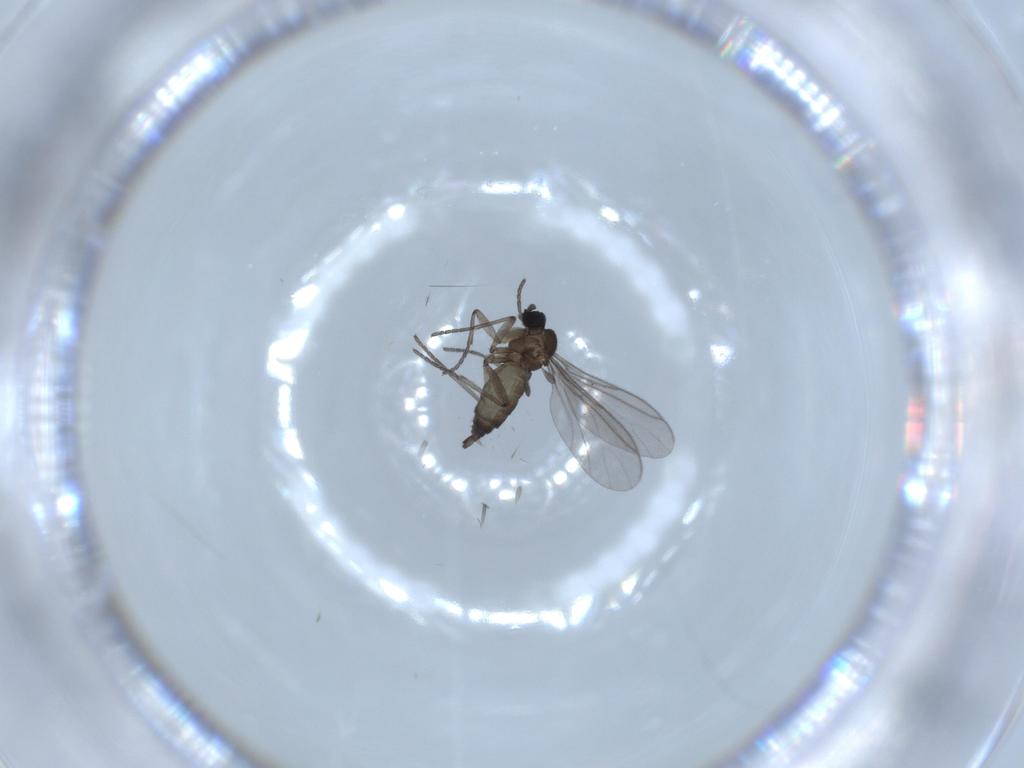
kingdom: Animalia
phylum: Arthropoda
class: Insecta
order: Diptera
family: Sciaridae
